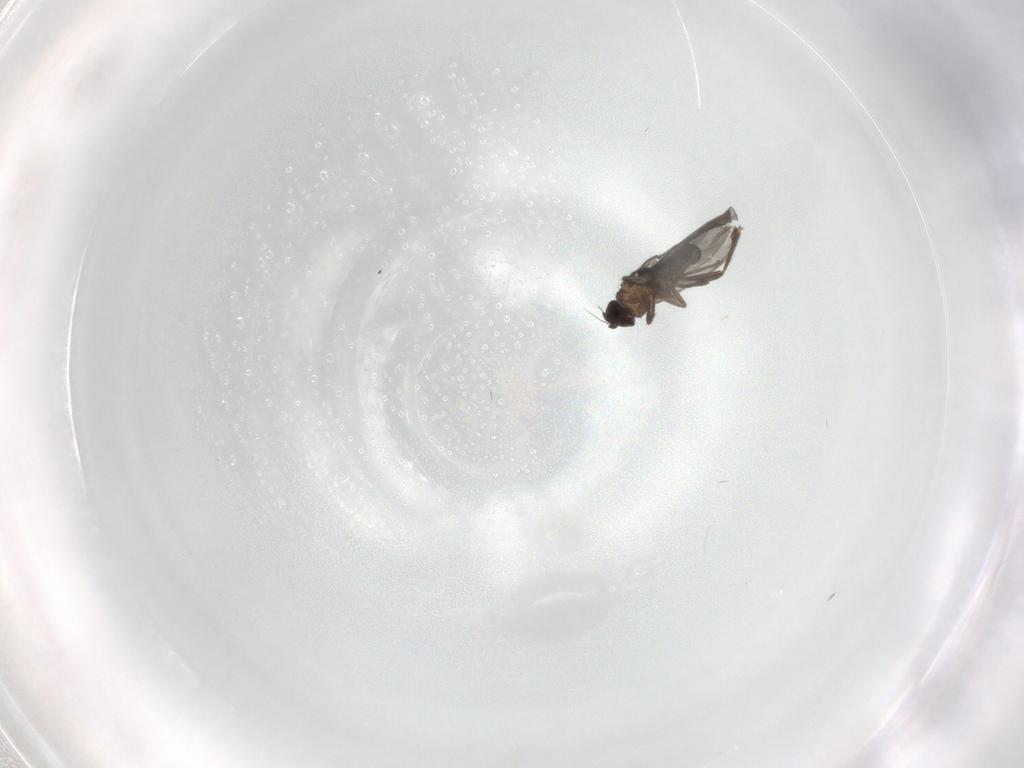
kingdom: Animalia
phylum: Arthropoda
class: Insecta
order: Diptera
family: Phoridae
